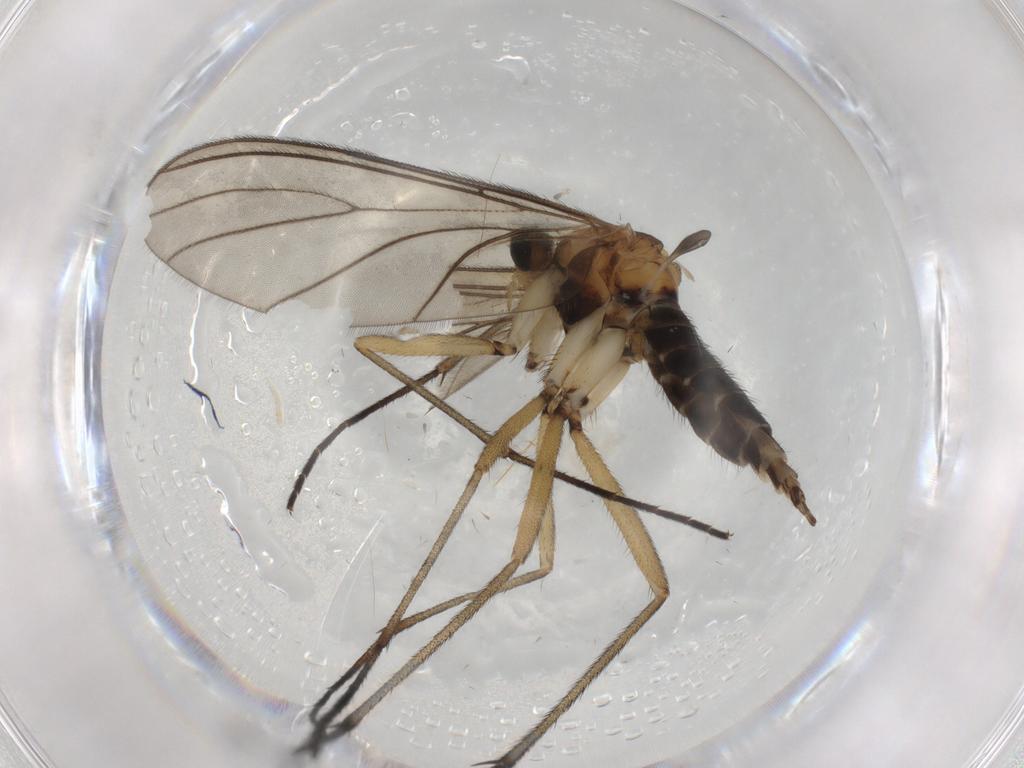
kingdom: Animalia
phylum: Arthropoda
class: Insecta
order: Diptera
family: Sciaridae
